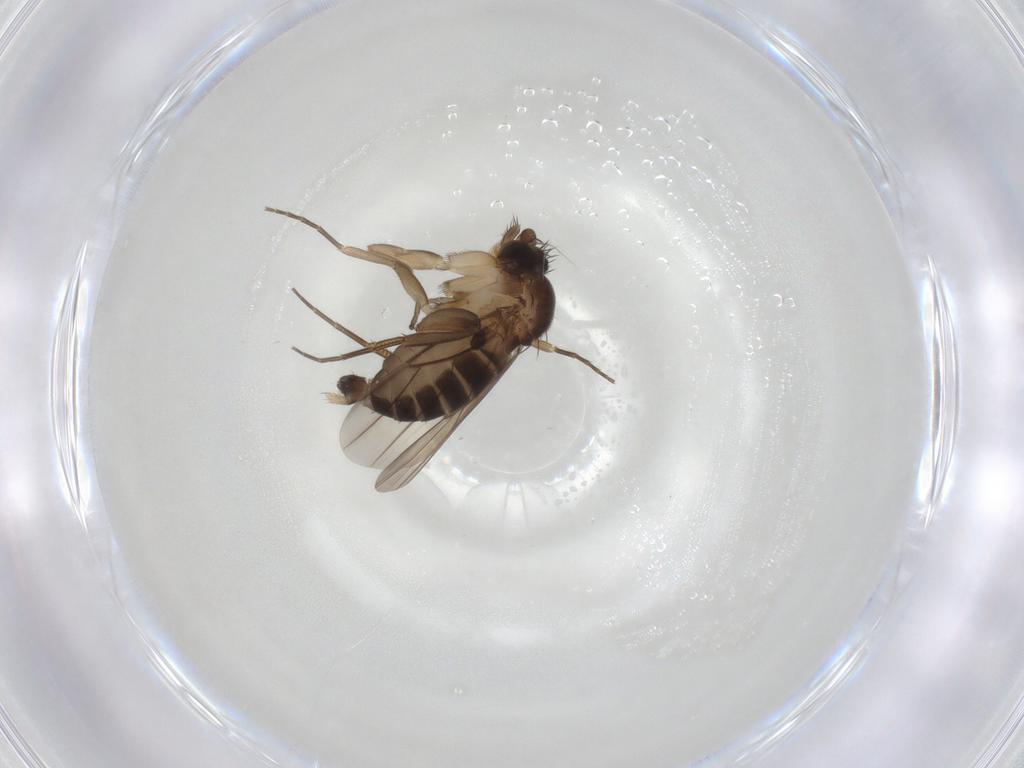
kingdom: Animalia
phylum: Arthropoda
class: Insecta
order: Diptera
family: Phoridae
